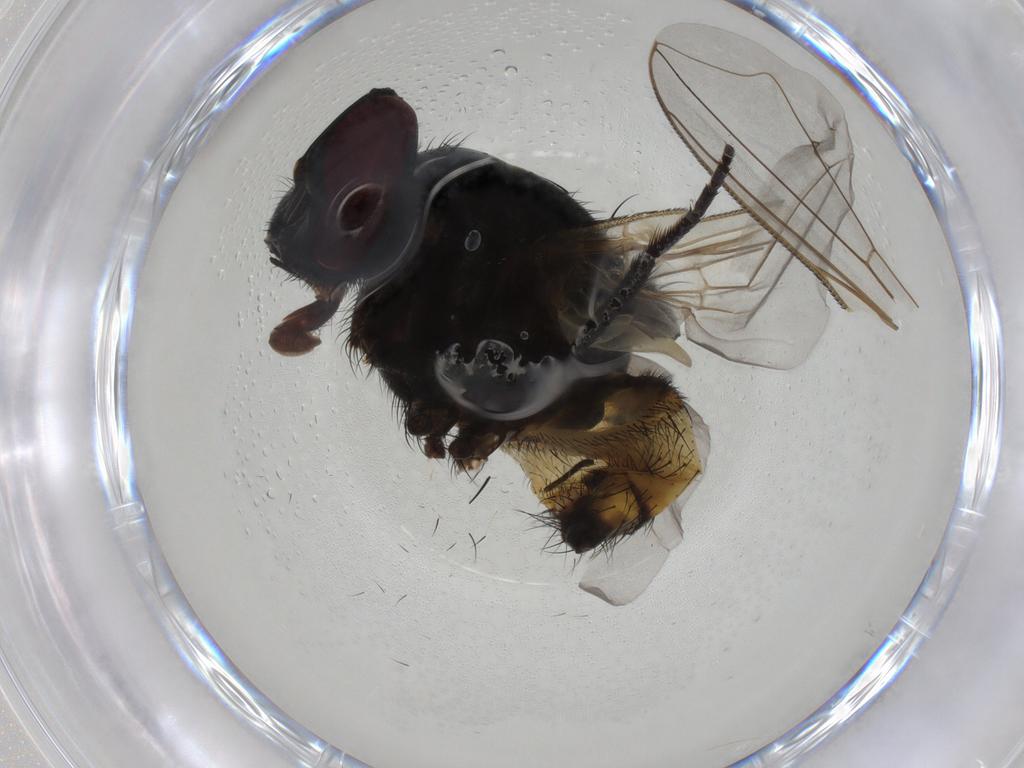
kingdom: Animalia
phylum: Arthropoda
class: Insecta
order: Diptera
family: Muscidae
